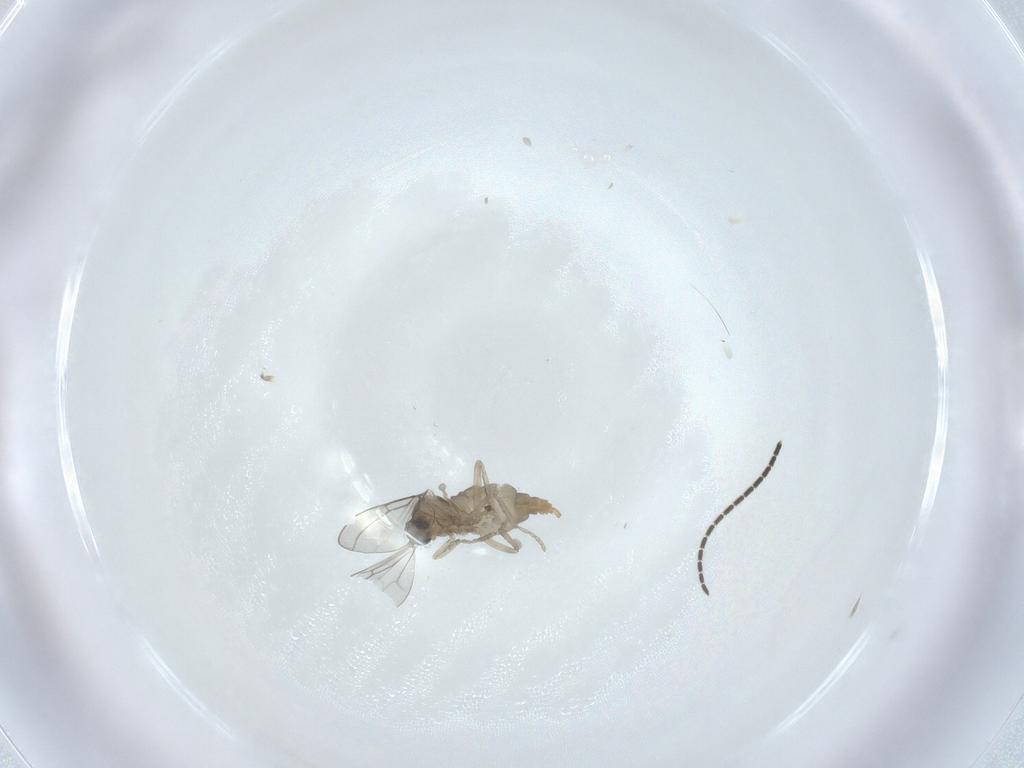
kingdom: Animalia
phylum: Arthropoda
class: Insecta
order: Diptera
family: Cecidomyiidae
